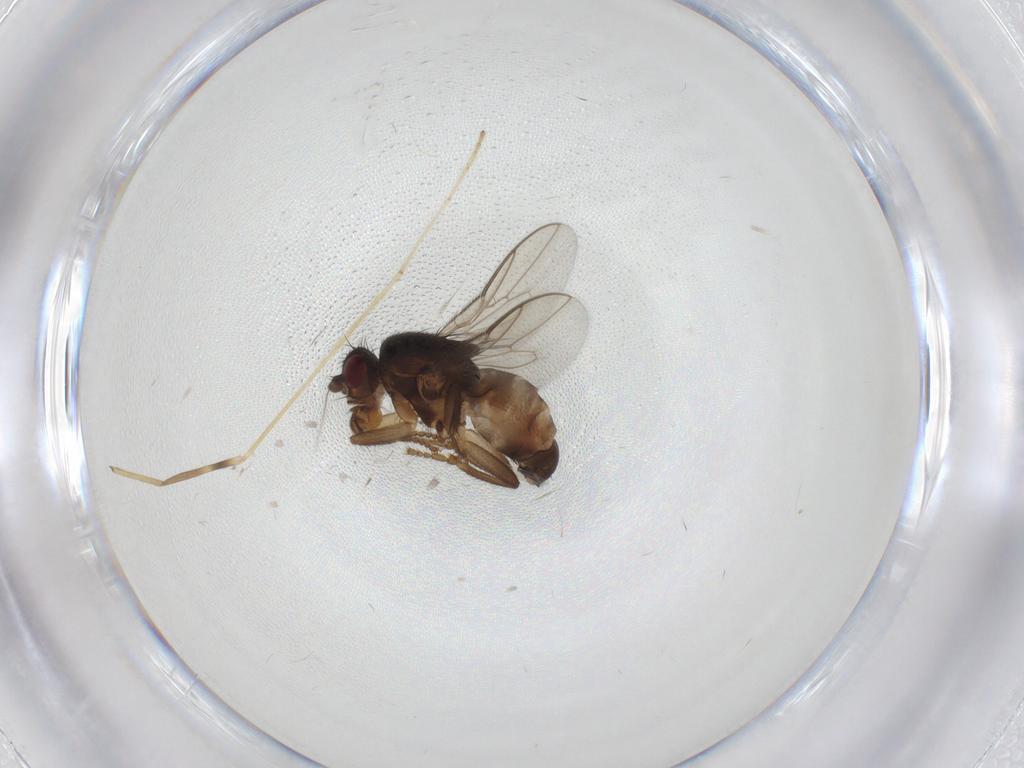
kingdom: Animalia
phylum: Arthropoda
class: Insecta
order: Diptera
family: Sphaeroceridae
